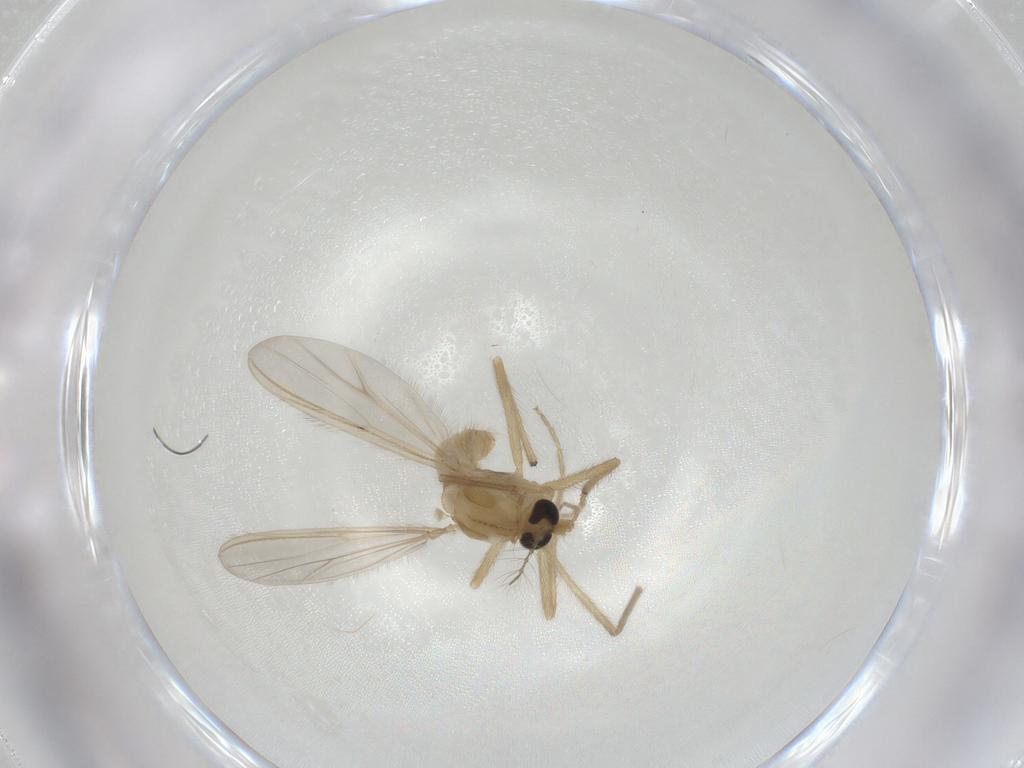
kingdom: Animalia
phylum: Arthropoda
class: Insecta
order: Diptera
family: Chironomidae
